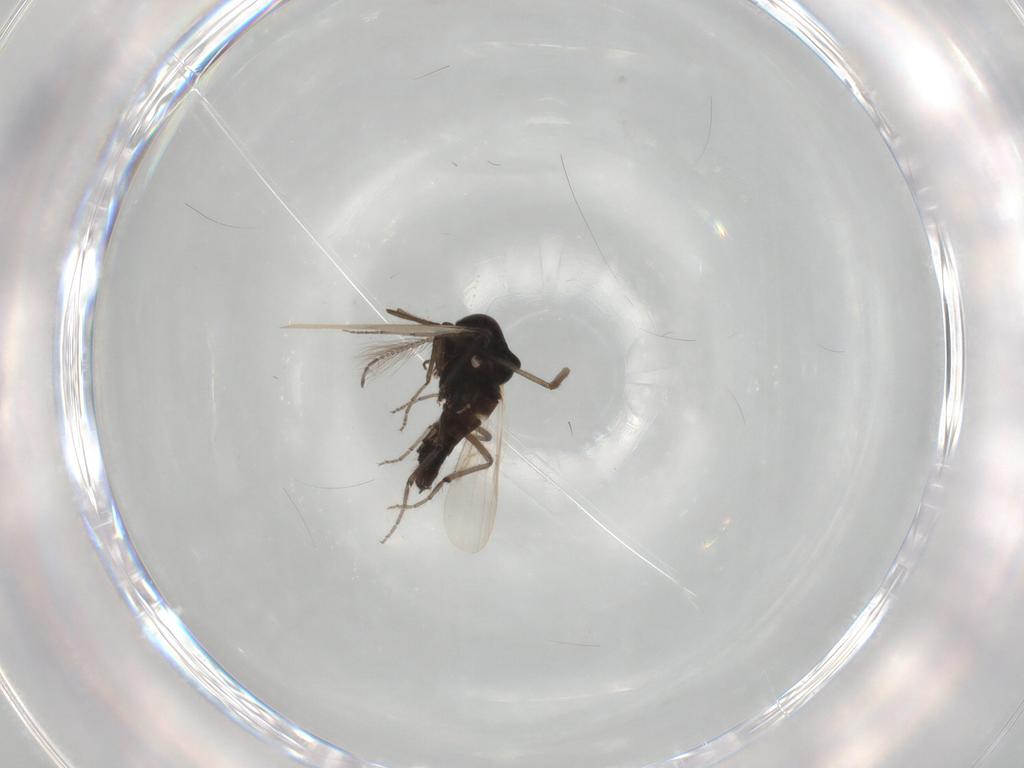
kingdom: Animalia
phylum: Arthropoda
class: Insecta
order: Diptera
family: Ceratopogonidae
